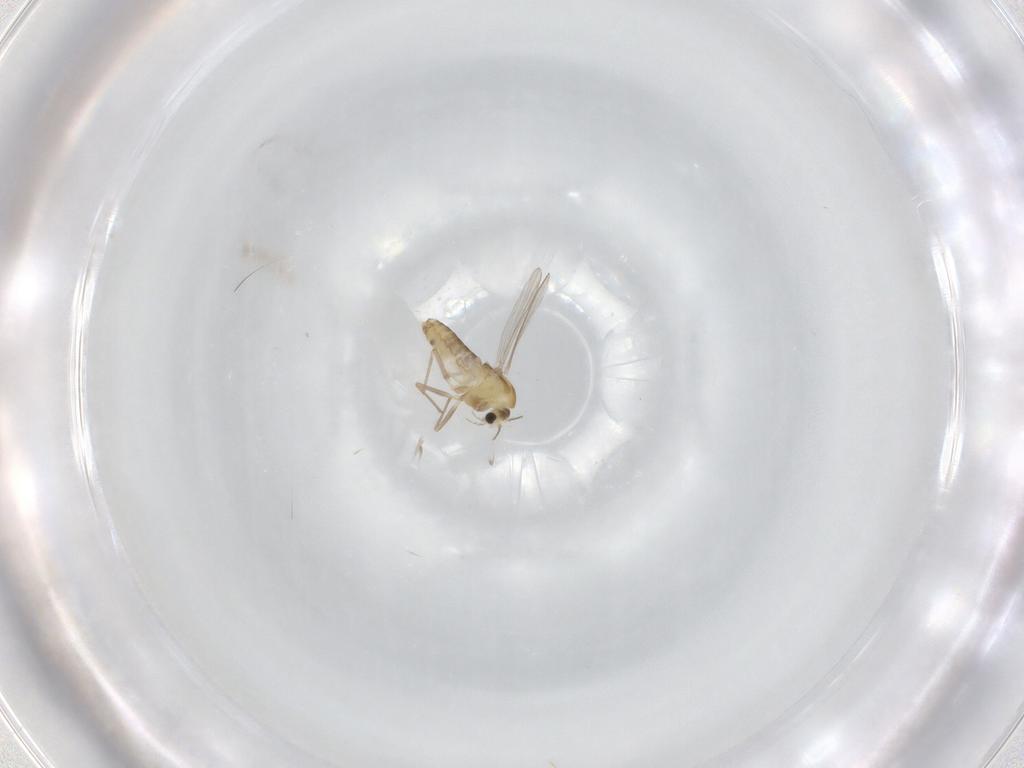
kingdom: Animalia
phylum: Arthropoda
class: Insecta
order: Diptera
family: Chironomidae
